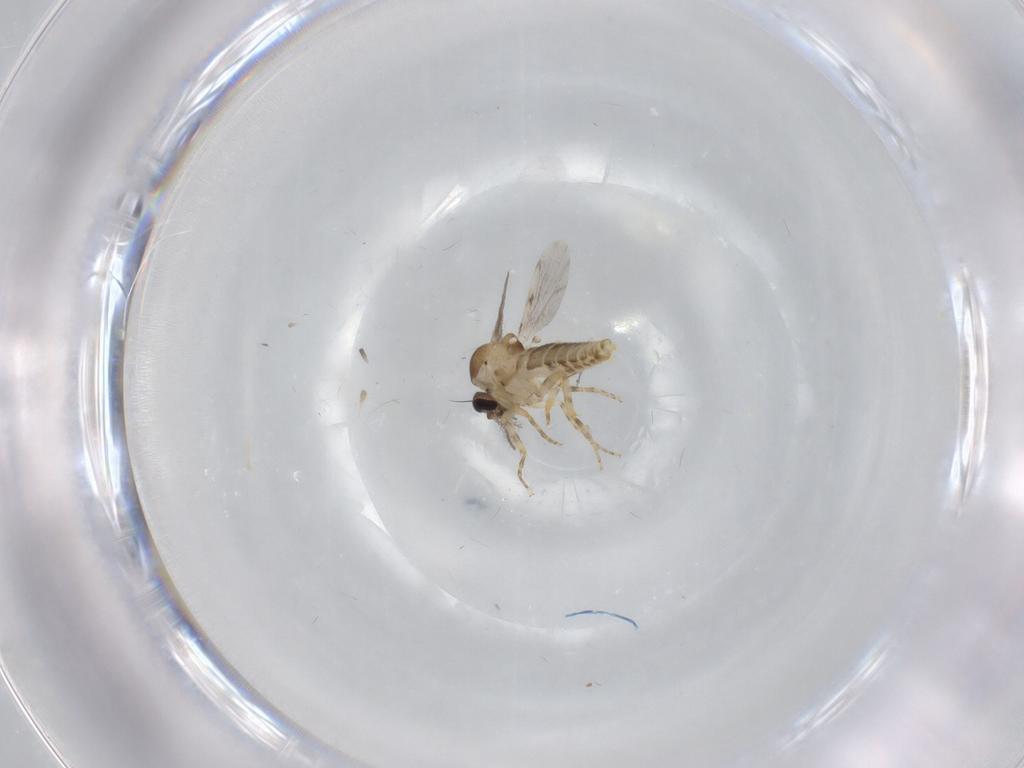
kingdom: Animalia
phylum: Arthropoda
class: Insecta
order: Diptera
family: Ceratopogonidae
